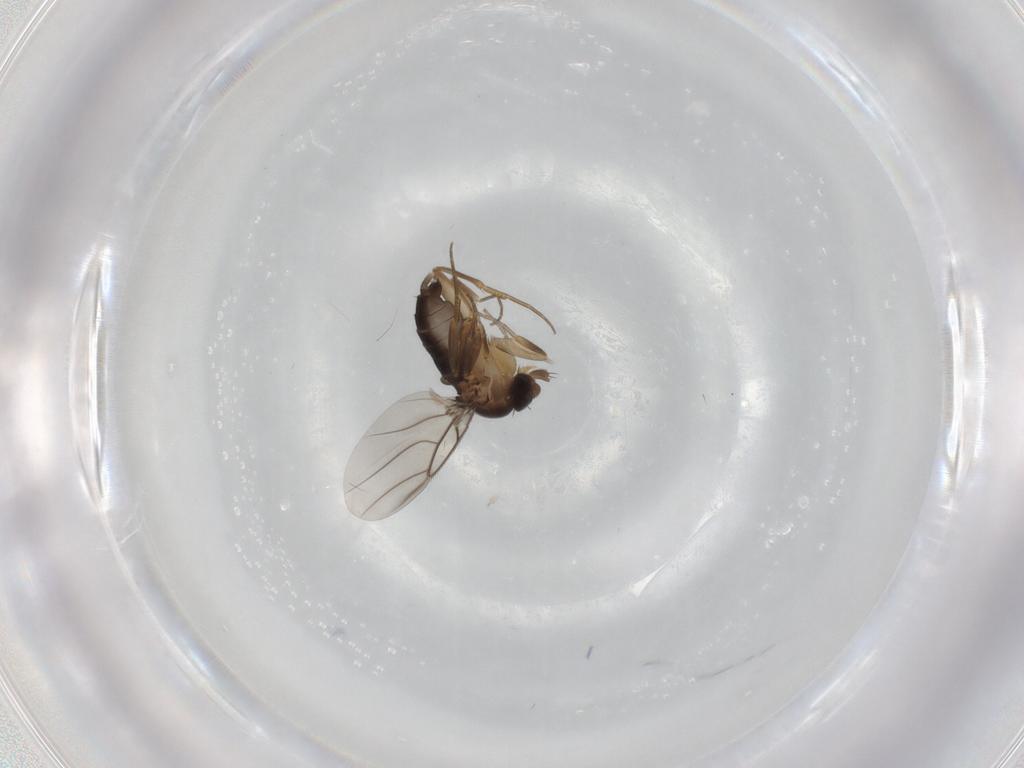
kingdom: Animalia
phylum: Arthropoda
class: Insecta
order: Diptera
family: Phoridae
